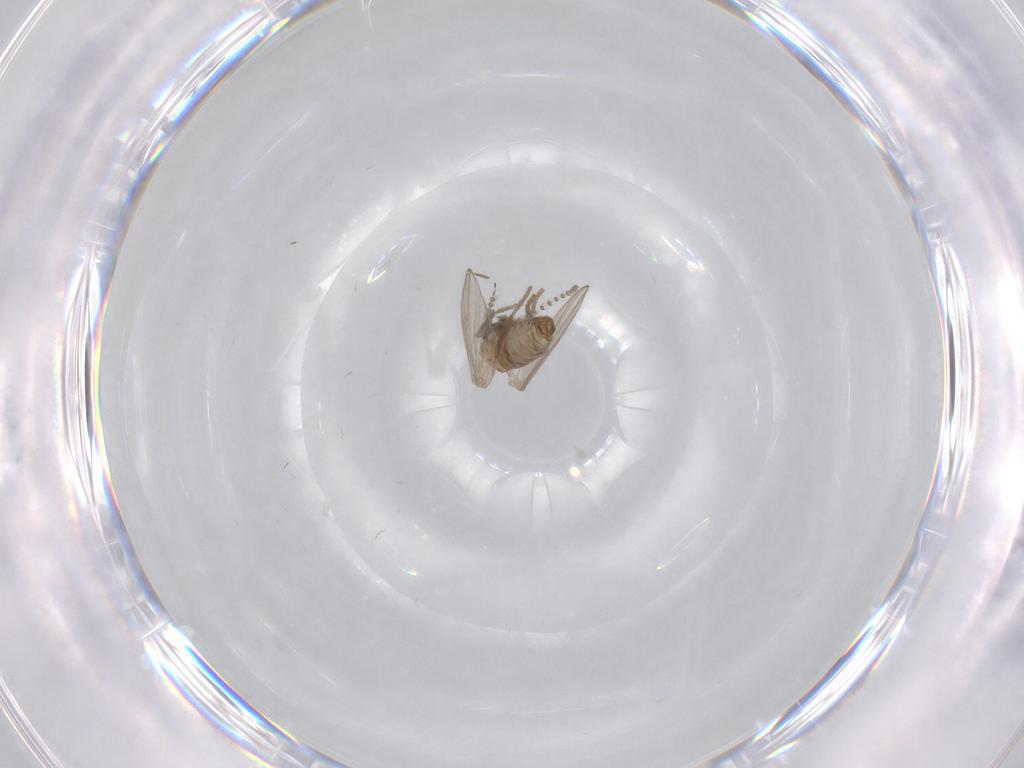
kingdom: Animalia
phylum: Arthropoda
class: Insecta
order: Diptera
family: Psychodidae
